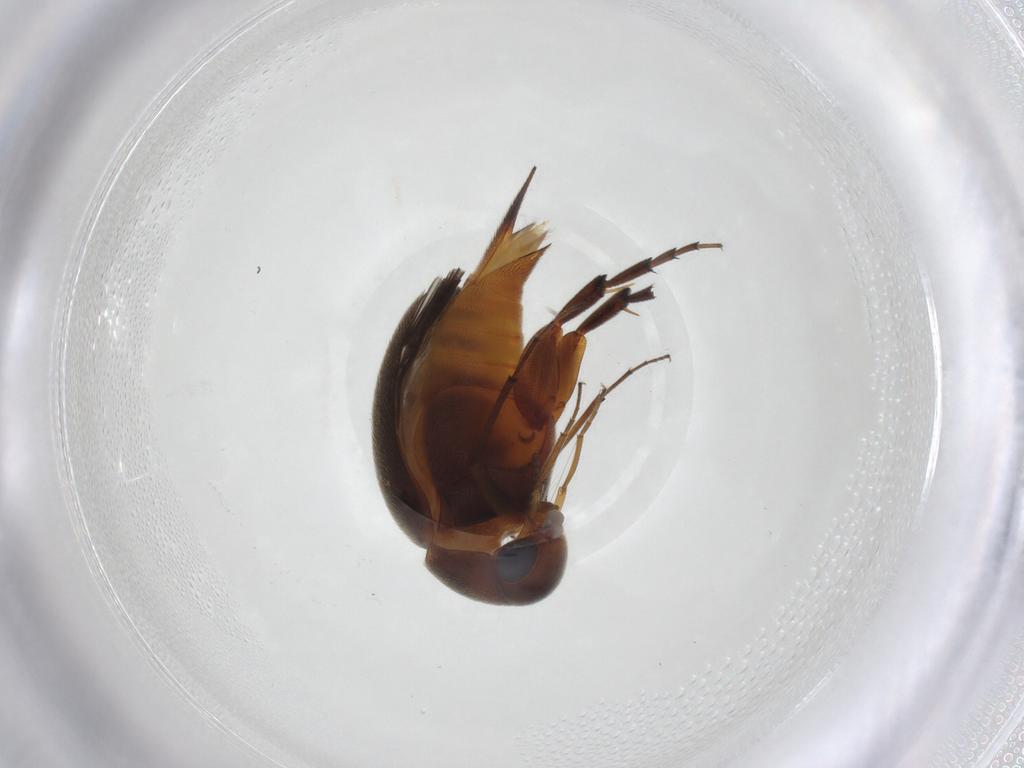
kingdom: Animalia
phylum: Arthropoda
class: Insecta
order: Coleoptera
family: Mordellidae
